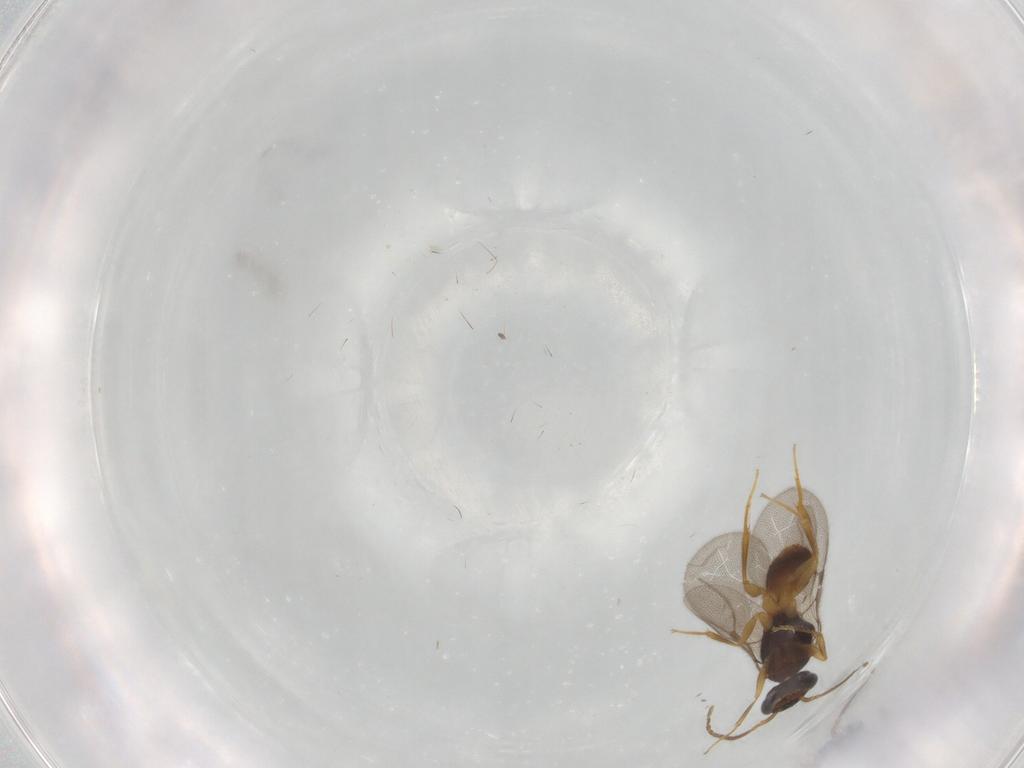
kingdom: Animalia
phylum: Arthropoda
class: Insecta
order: Hymenoptera
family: Bethylidae
